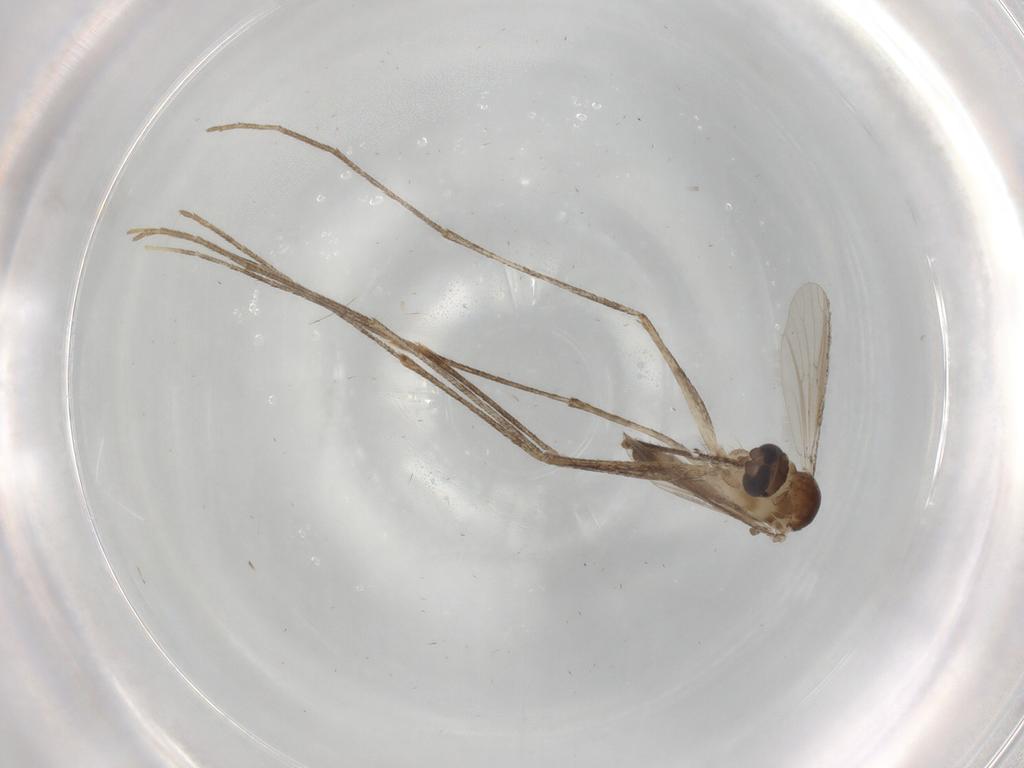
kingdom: Animalia
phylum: Arthropoda
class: Insecta
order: Diptera
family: Culicidae
